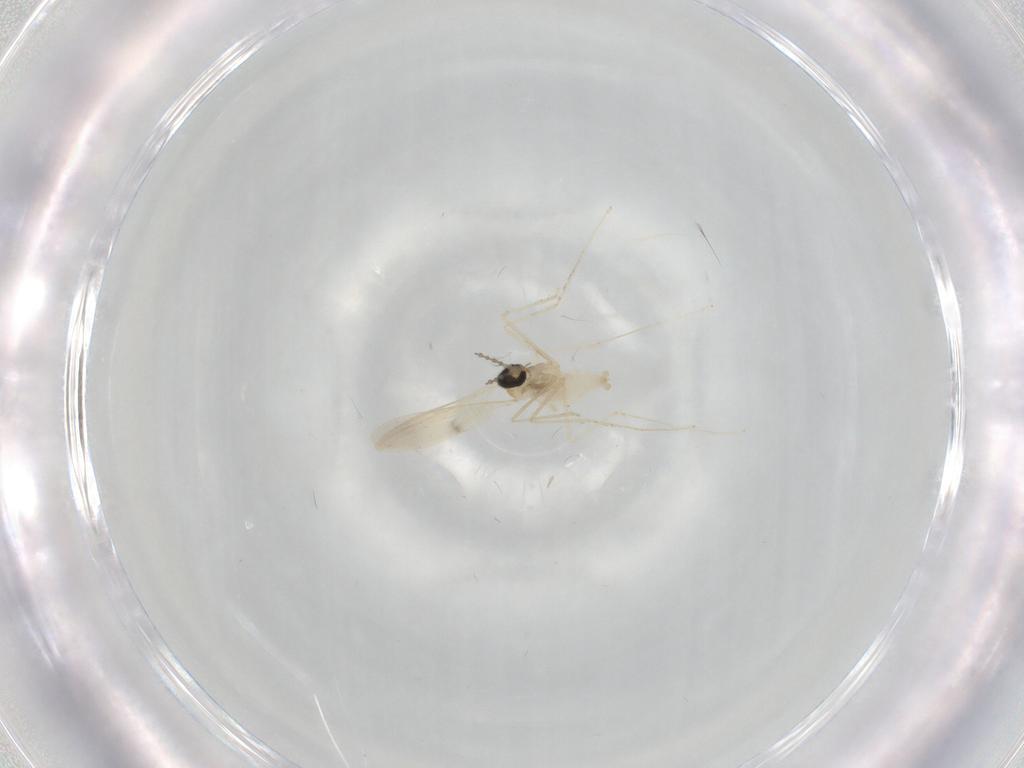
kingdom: Animalia
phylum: Arthropoda
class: Insecta
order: Diptera
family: Cecidomyiidae
